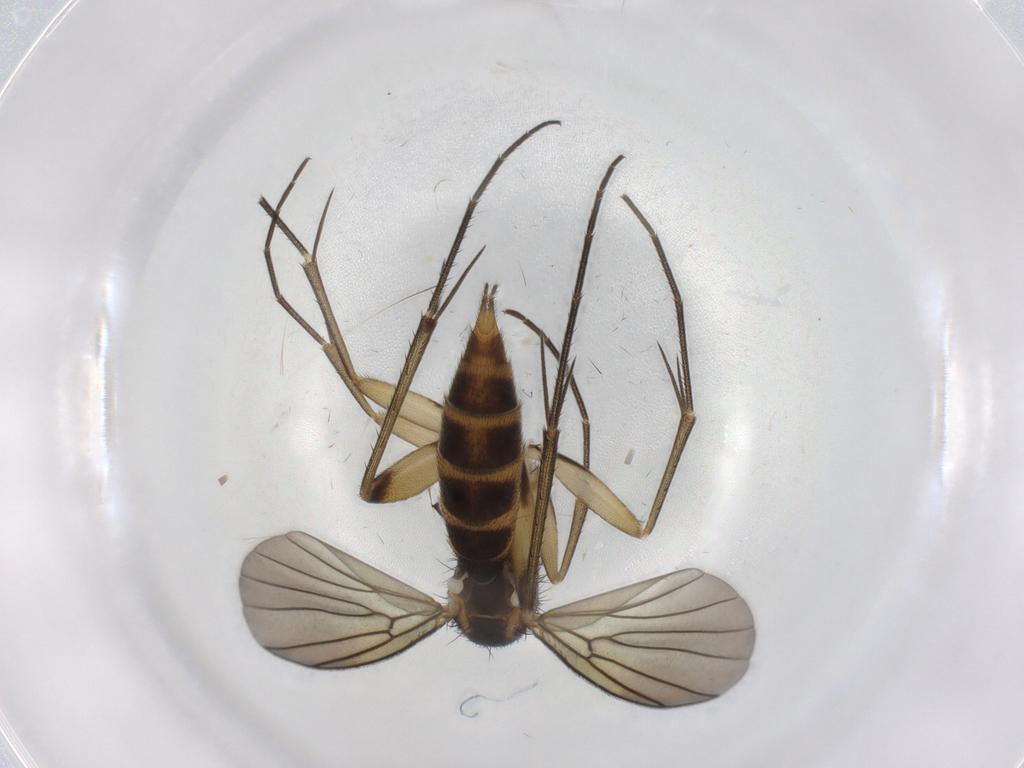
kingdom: Animalia
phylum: Arthropoda
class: Insecta
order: Diptera
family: Mycetophilidae
